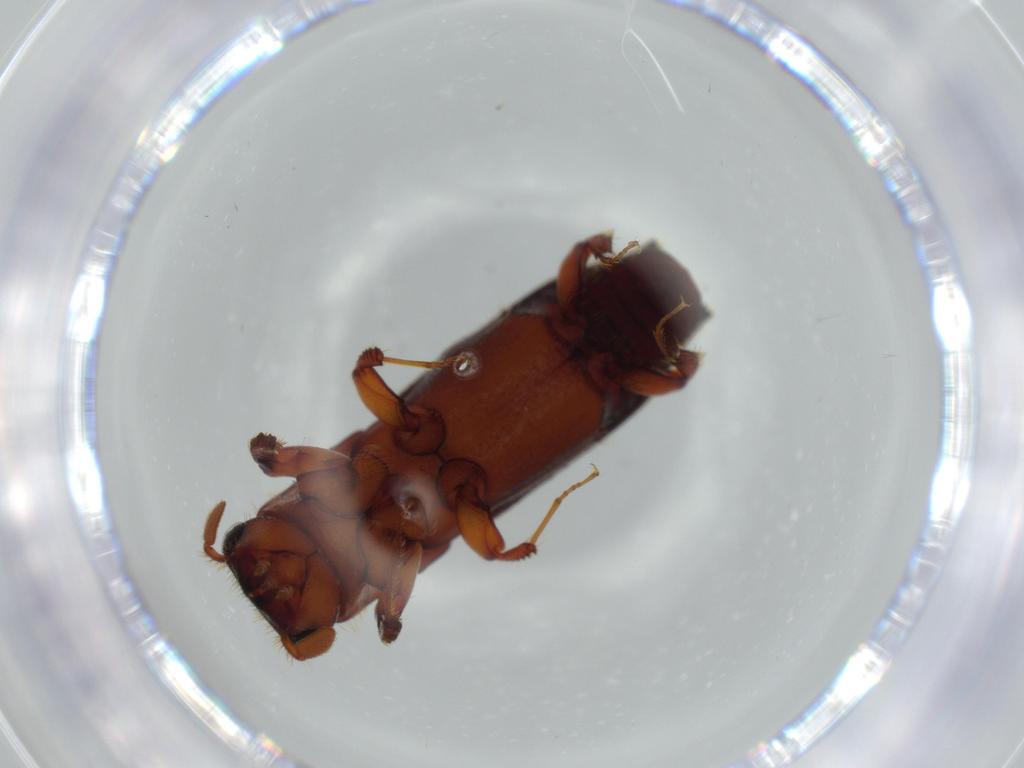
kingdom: Animalia
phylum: Arthropoda
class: Insecta
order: Coleoptera
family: Curculionidae
